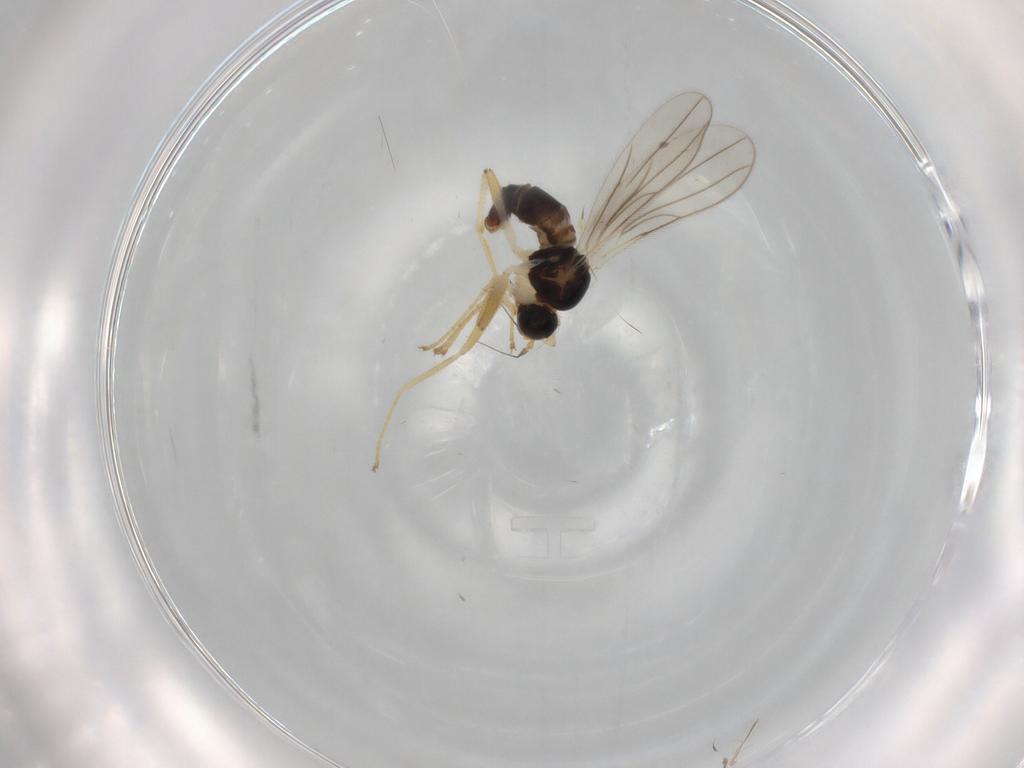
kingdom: Animalia
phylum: Arthropoda
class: Insecta
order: Diptera
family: Hybotidae
